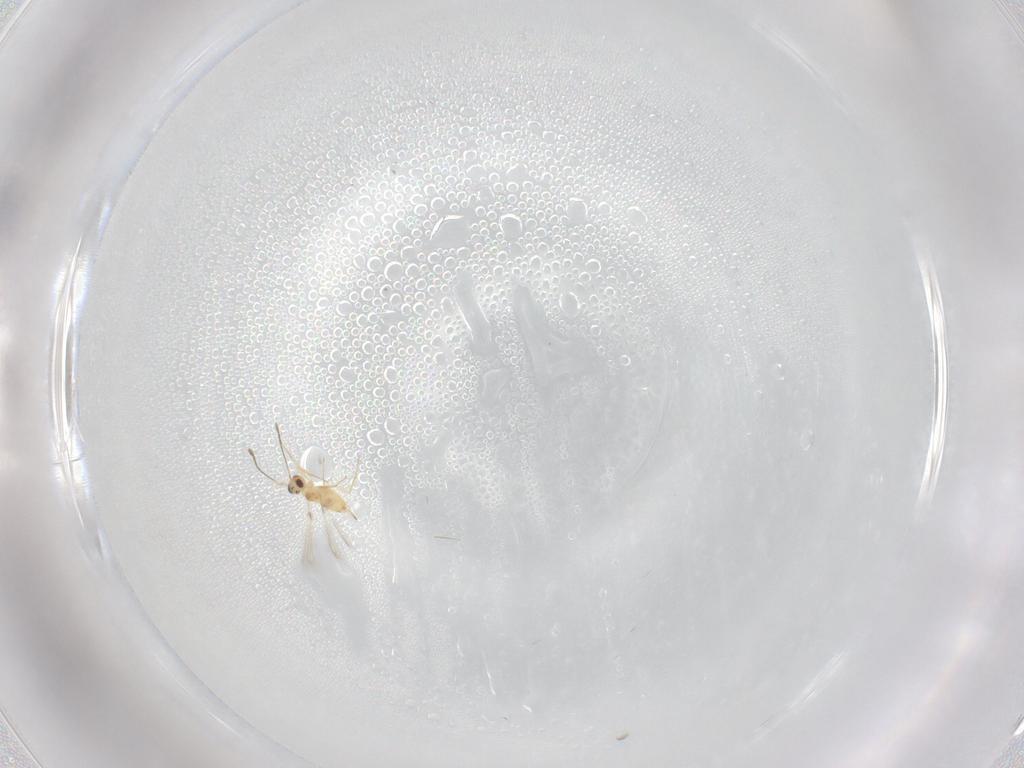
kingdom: Animalia
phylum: Arthropoda
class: Insecta
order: Hymenoptera
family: Mymaridae
